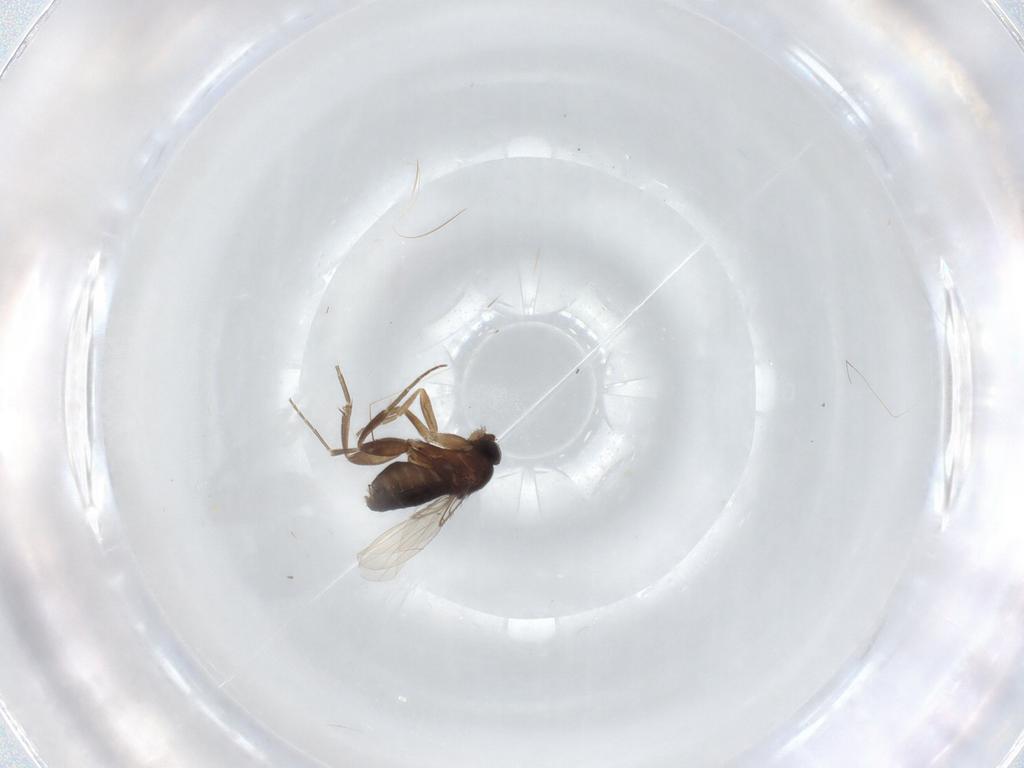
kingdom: Animalia
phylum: Arthropoda
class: Insecta
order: Diptera
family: Phoridae
